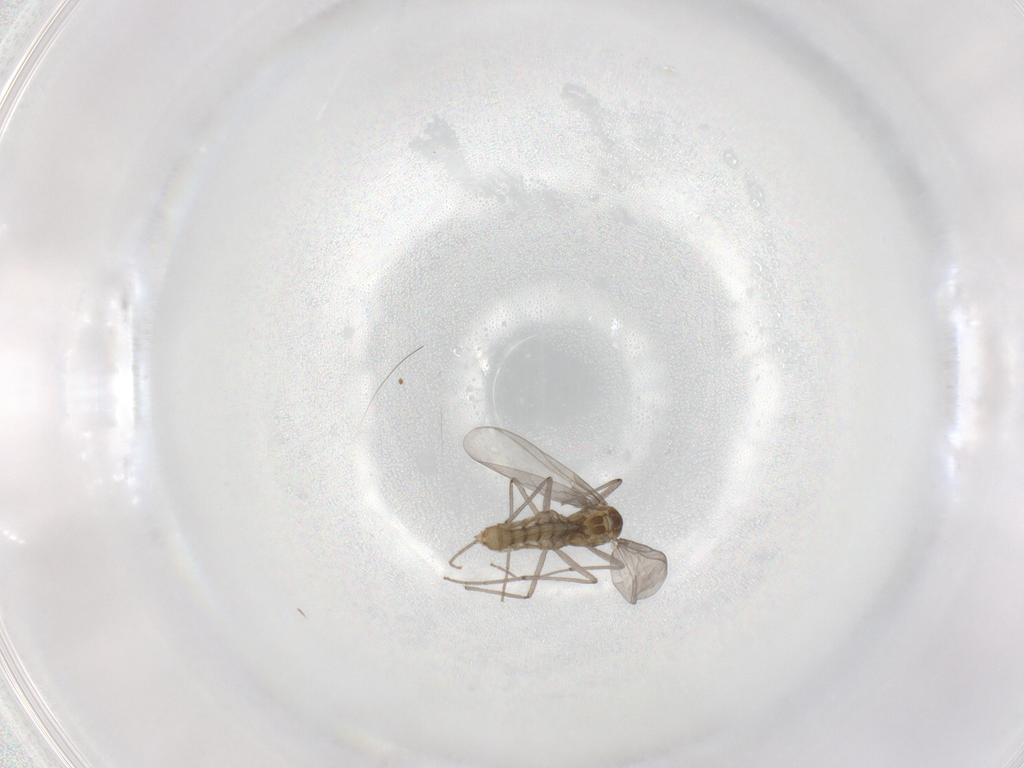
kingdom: Animalia
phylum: Arthropoda
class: Insecta
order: Diptera
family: Chironomidae
